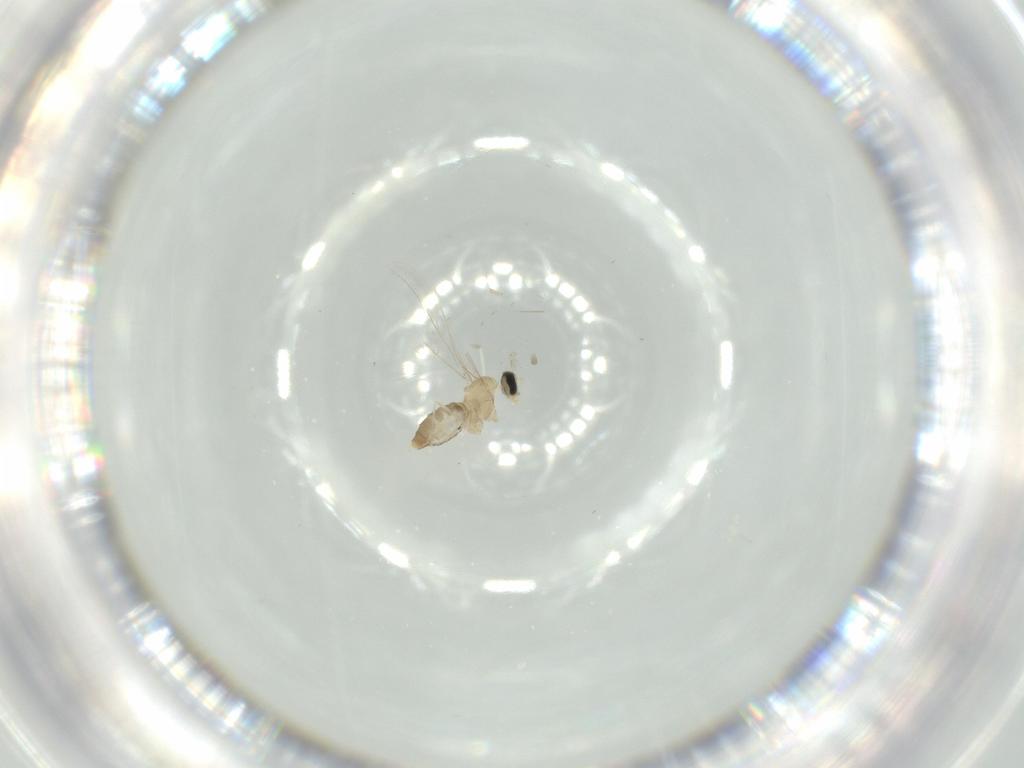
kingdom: Animalia
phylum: Arthropoda
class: Insecta
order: Diptera
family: Cecidomyiidae
